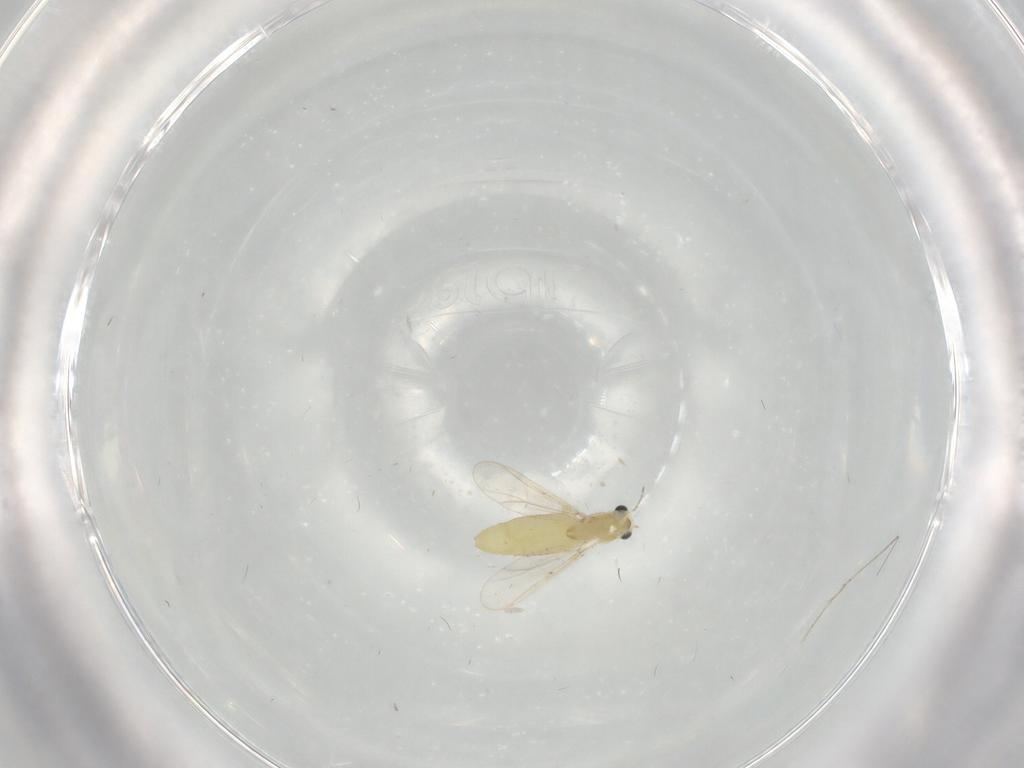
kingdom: Animalia
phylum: Arthropoda
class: Insecta
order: Diptera
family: Chironomidae
